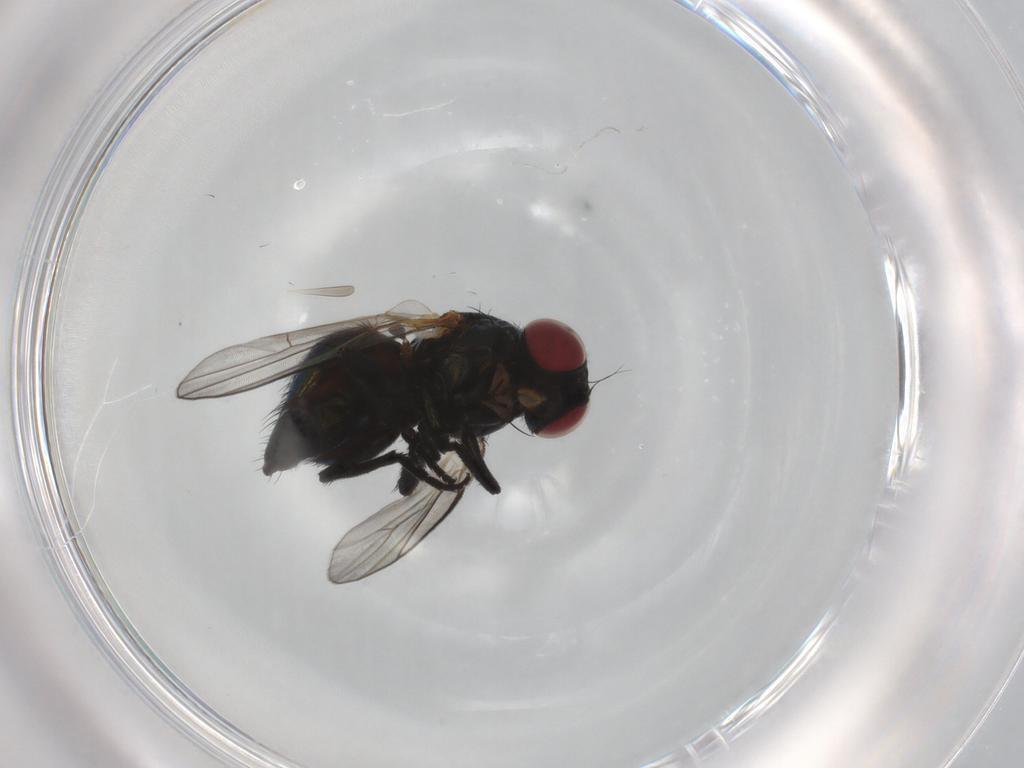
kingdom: Animalia
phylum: Arthropoda
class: Insecta
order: Diptera
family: Agromyzidae
